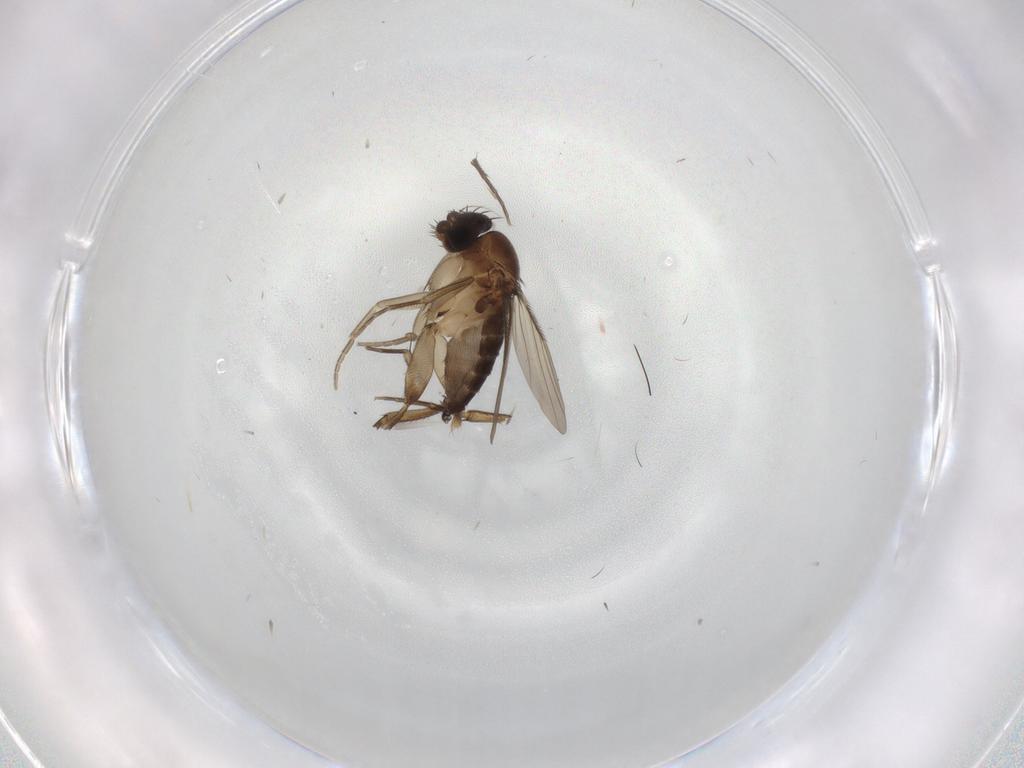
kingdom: Animalia
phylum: Arthropoda
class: Insecta
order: Diptera
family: Phoridae
